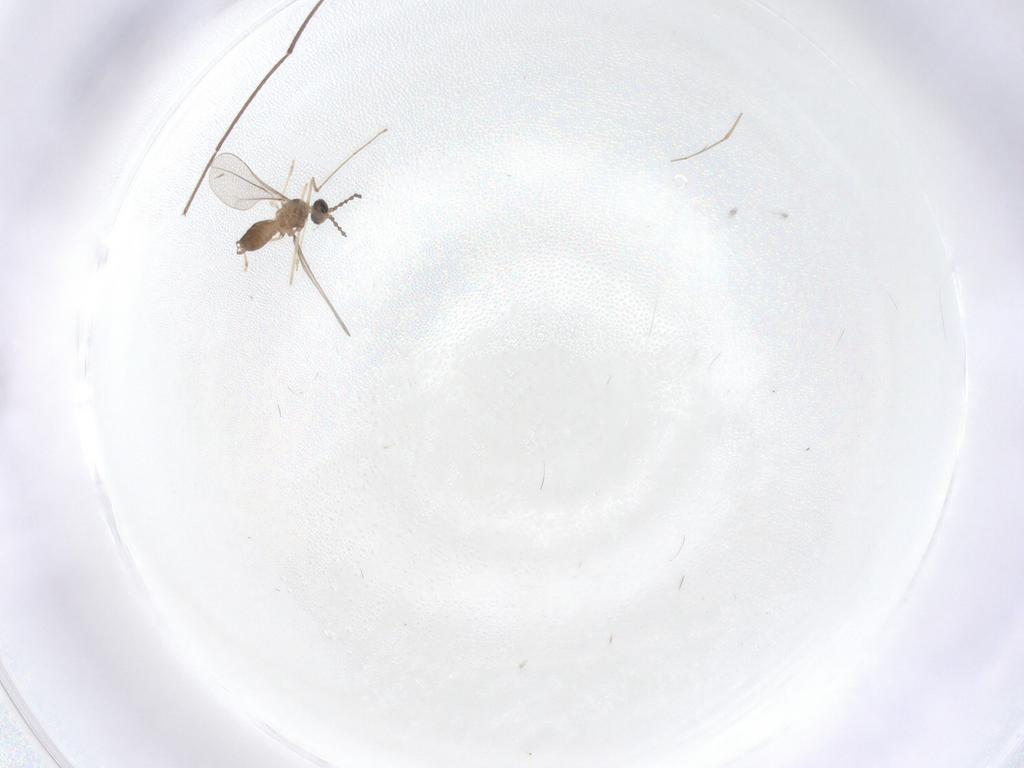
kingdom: Animalia
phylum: Arthropoda
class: Insecta
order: Diptera
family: Cecidomyiidae
